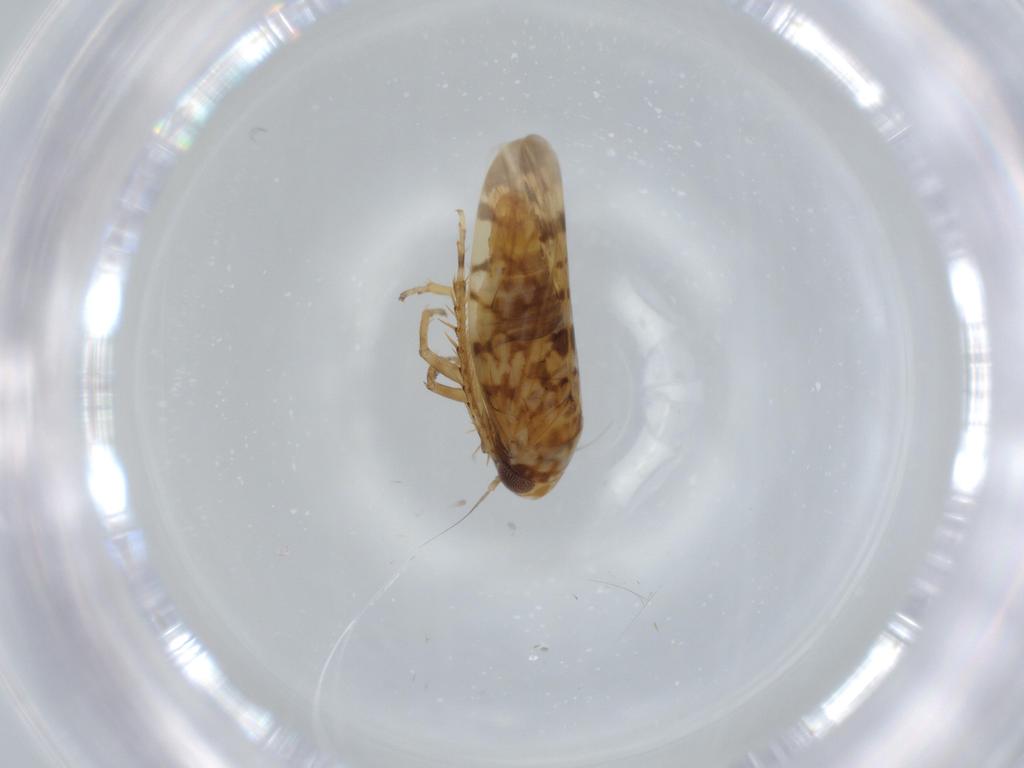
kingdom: Animalia
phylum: Arthropoda
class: Insecta
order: Hemiptera
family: Cicadellidae
